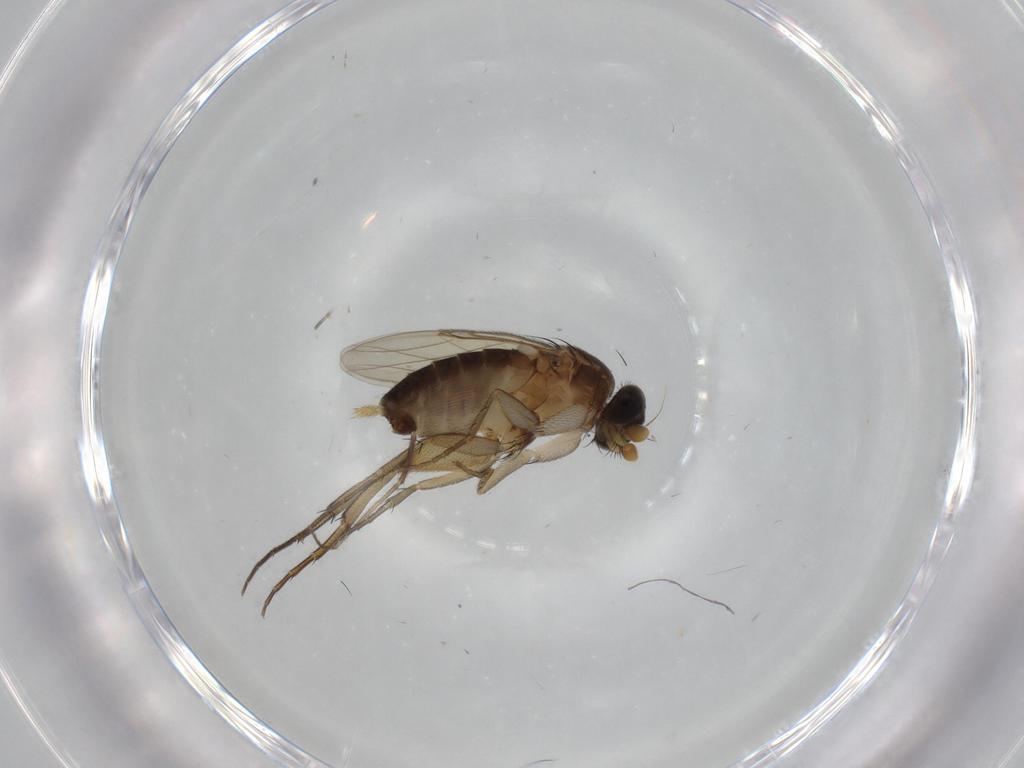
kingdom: Animalia
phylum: Arthropoda
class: Insecta
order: Diptera
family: Phoridae
